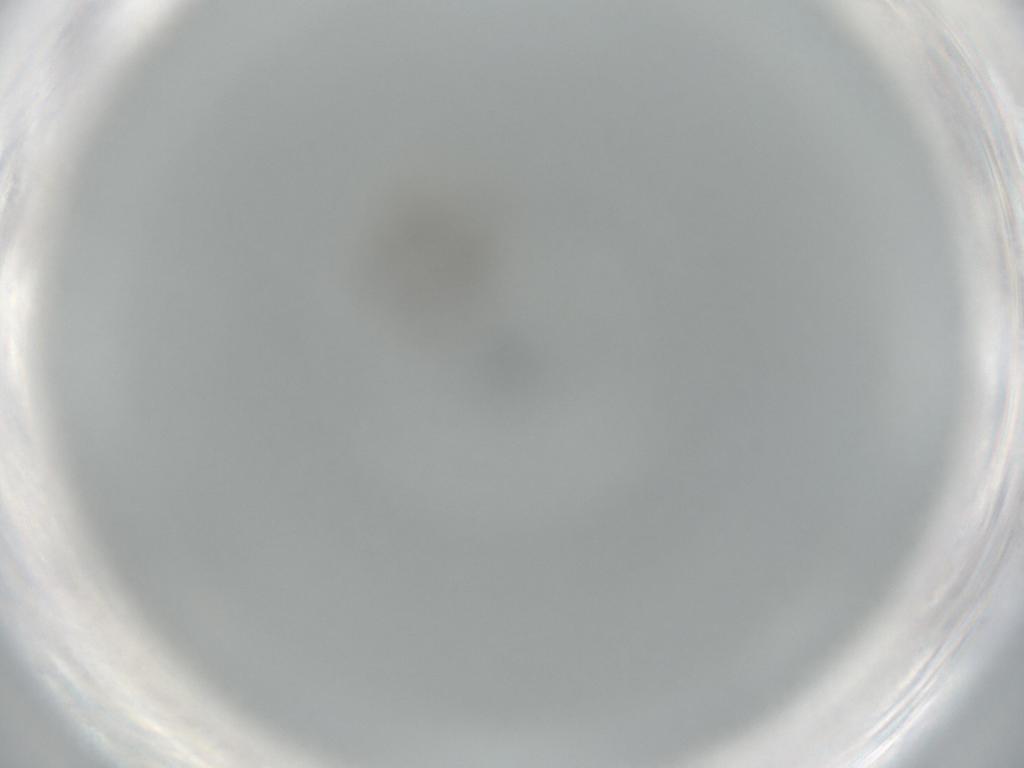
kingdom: Animalia
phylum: Arthropoda
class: Insecta
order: Diptera
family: Chironomidae
